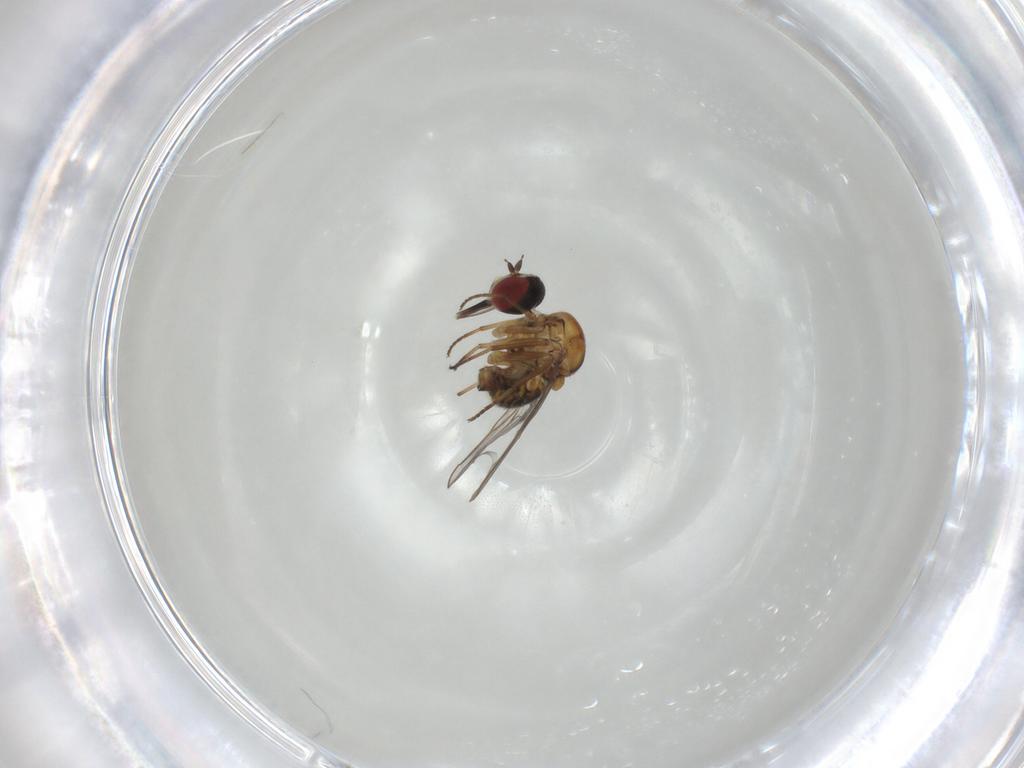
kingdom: Animalia
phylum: Arthropoda
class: Insecta
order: Diptera
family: Bombyliidae
